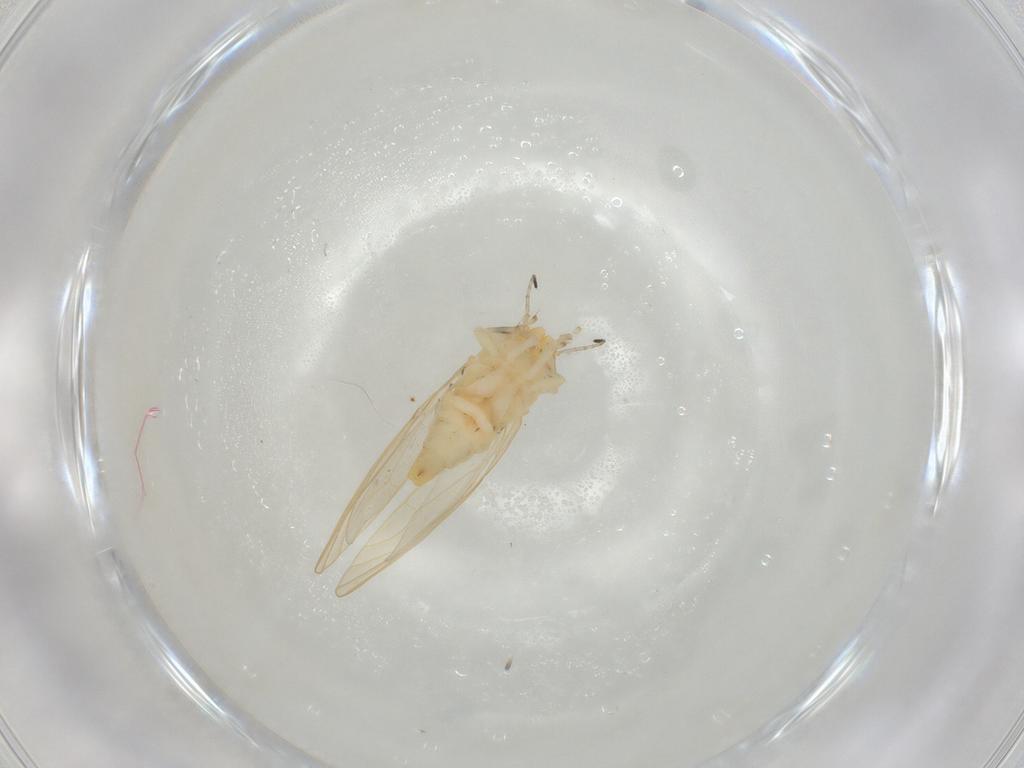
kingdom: Animalia
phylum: Arthropoda
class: Insecta
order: Hemiptera
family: Aphalaridae
